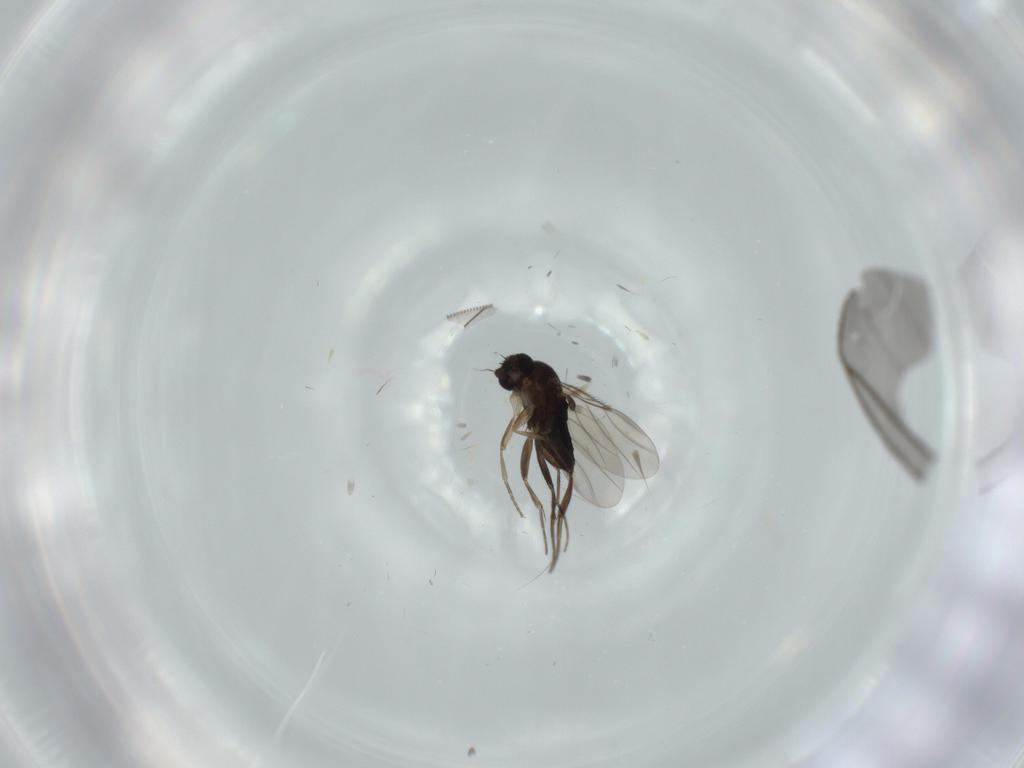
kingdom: Animalia
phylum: Arthropoda
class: Insecta
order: Diptera
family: Sciaridae
